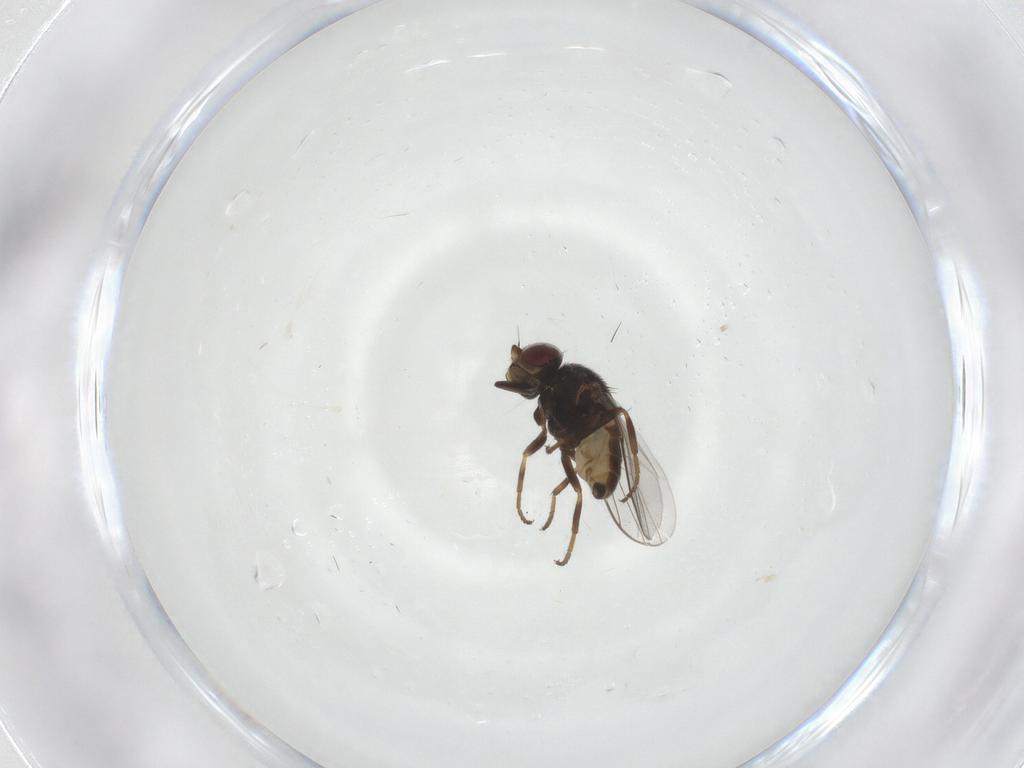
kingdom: Animalia
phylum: Arthropoda
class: Insecta
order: Diptera
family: Chloropidae
